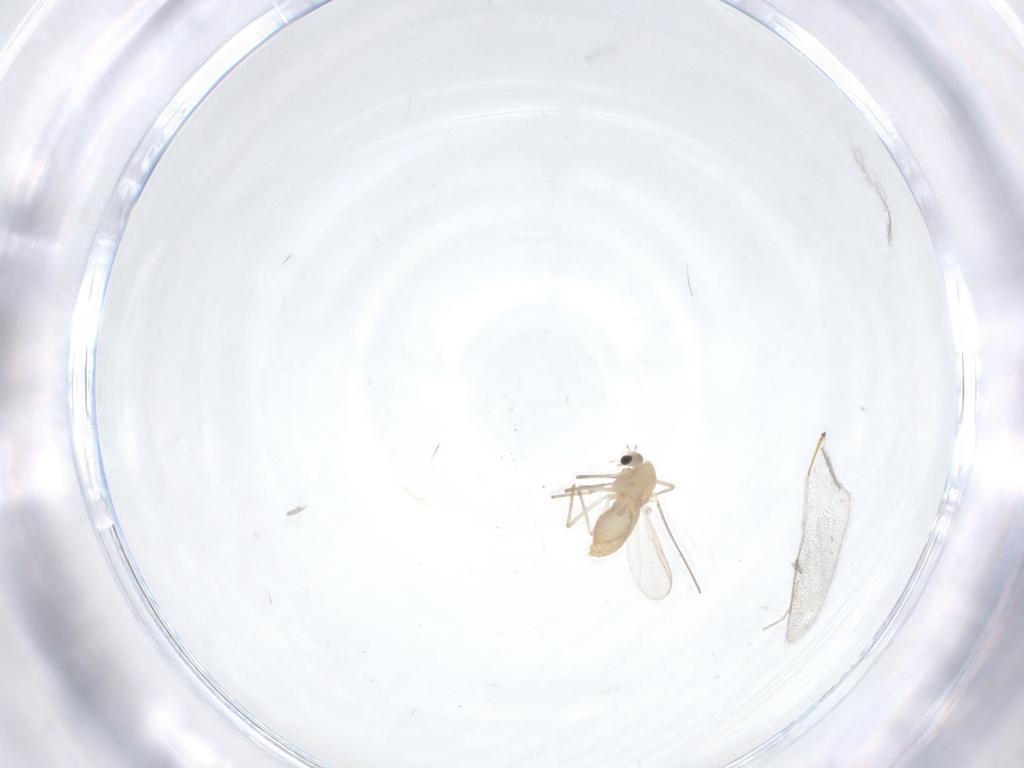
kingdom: Animalia
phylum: Arthropoda
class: Insecta
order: Diptera
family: Chironomidae
